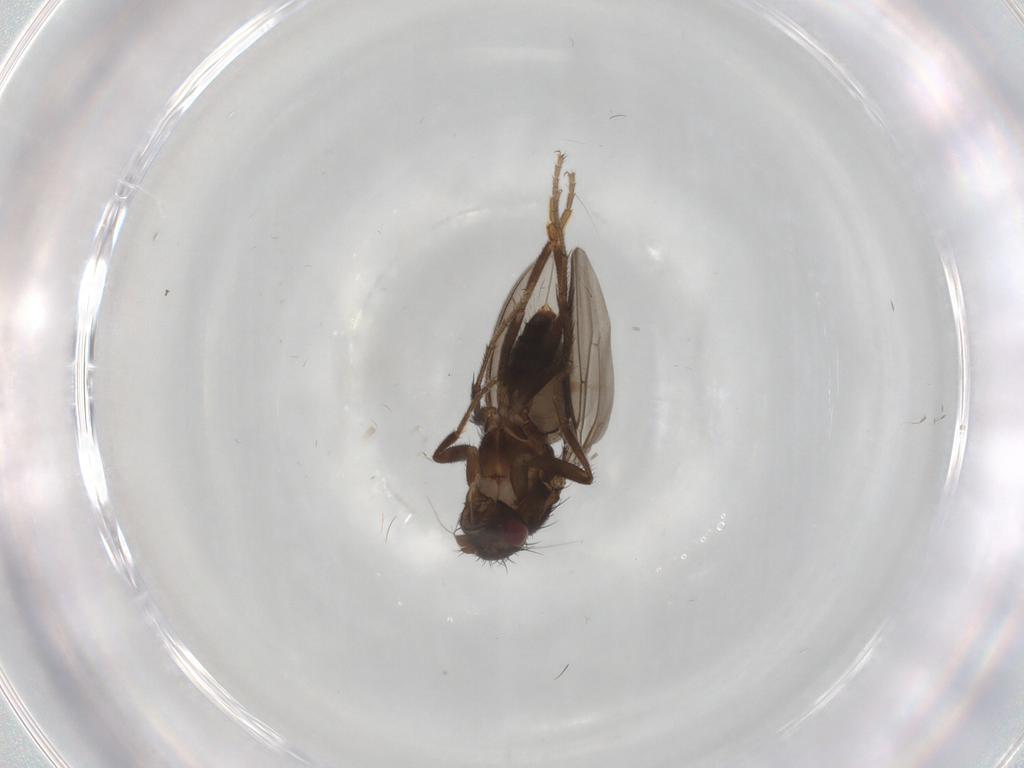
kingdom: Animalia
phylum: Arthropoda
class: Insecta
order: Diptera
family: Sphaeroceridae
